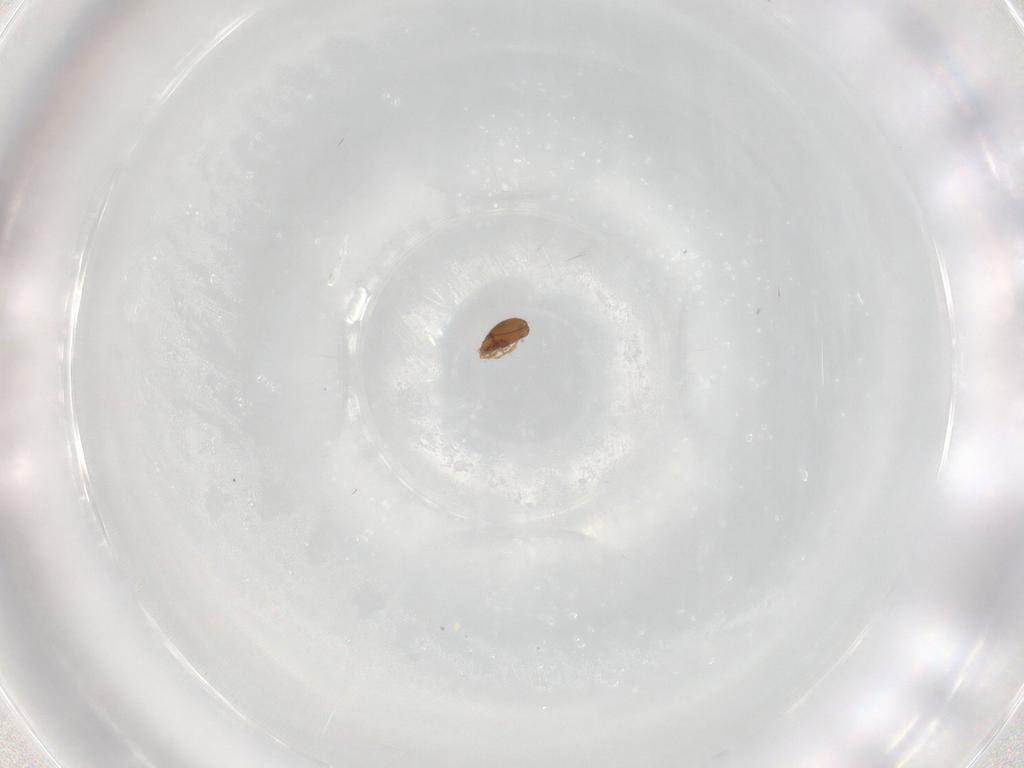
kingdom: Animalia
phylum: Arthropoda
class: Arachnida
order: Sarcoptiformes
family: Oribatulidae
